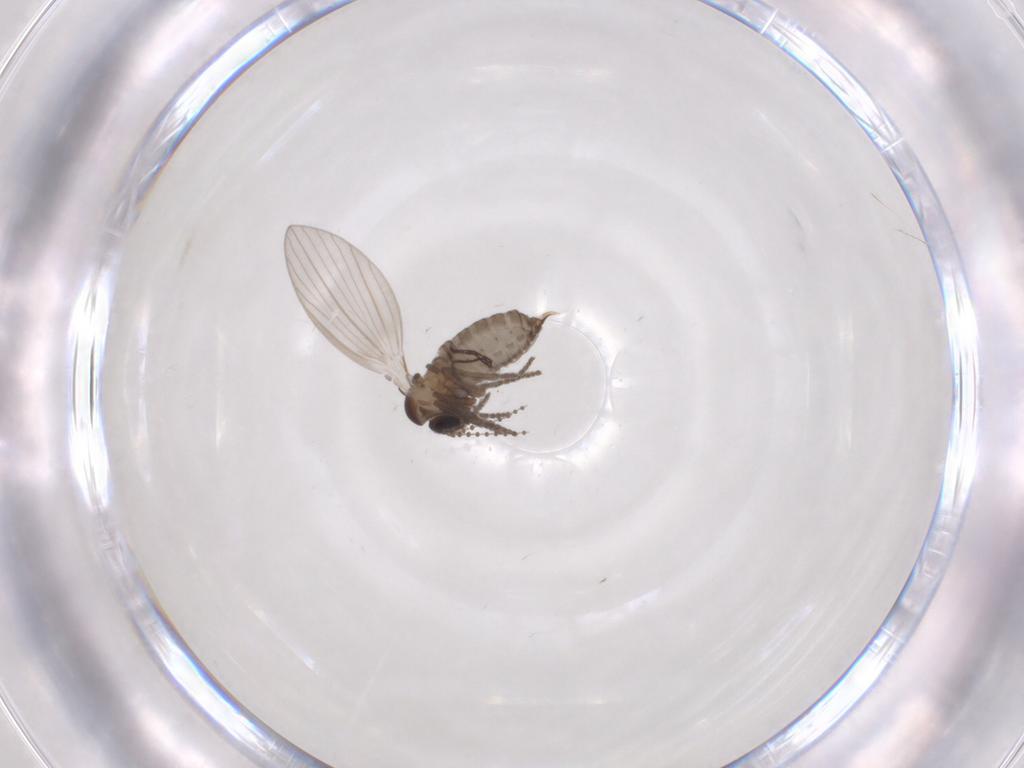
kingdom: Animalia
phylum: Arthropoda
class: Insecta
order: Diptera
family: Psychodidae
